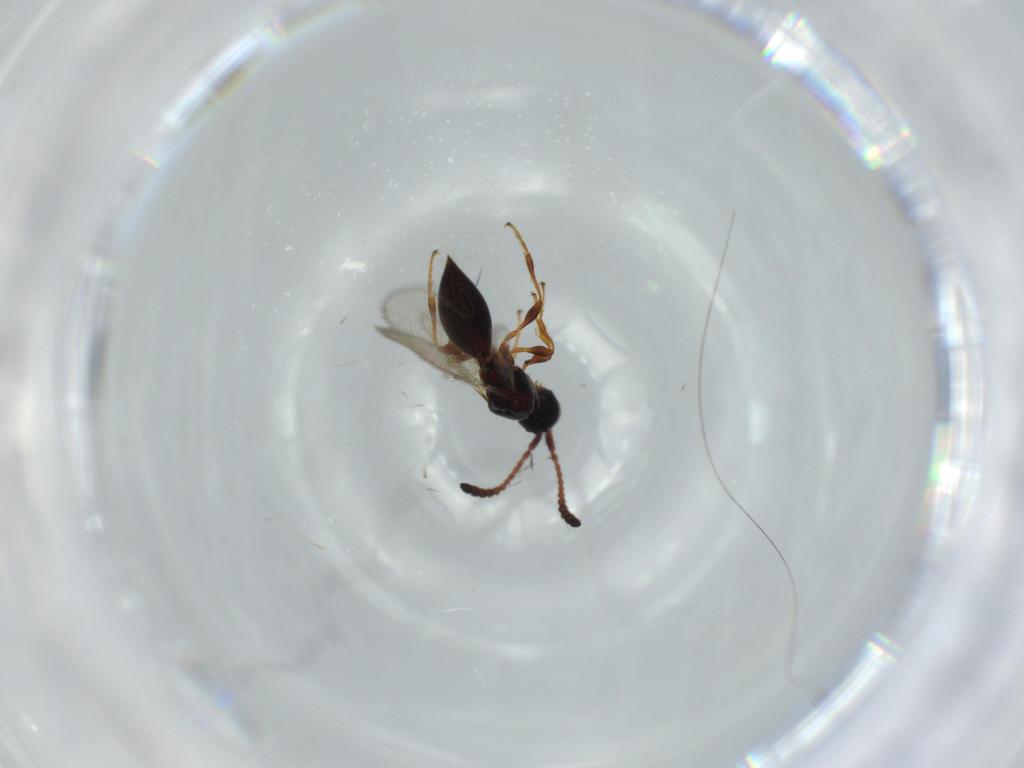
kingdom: Animalia
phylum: Arthropoda
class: Insecta
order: Hymenoptera
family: Diapriidae
